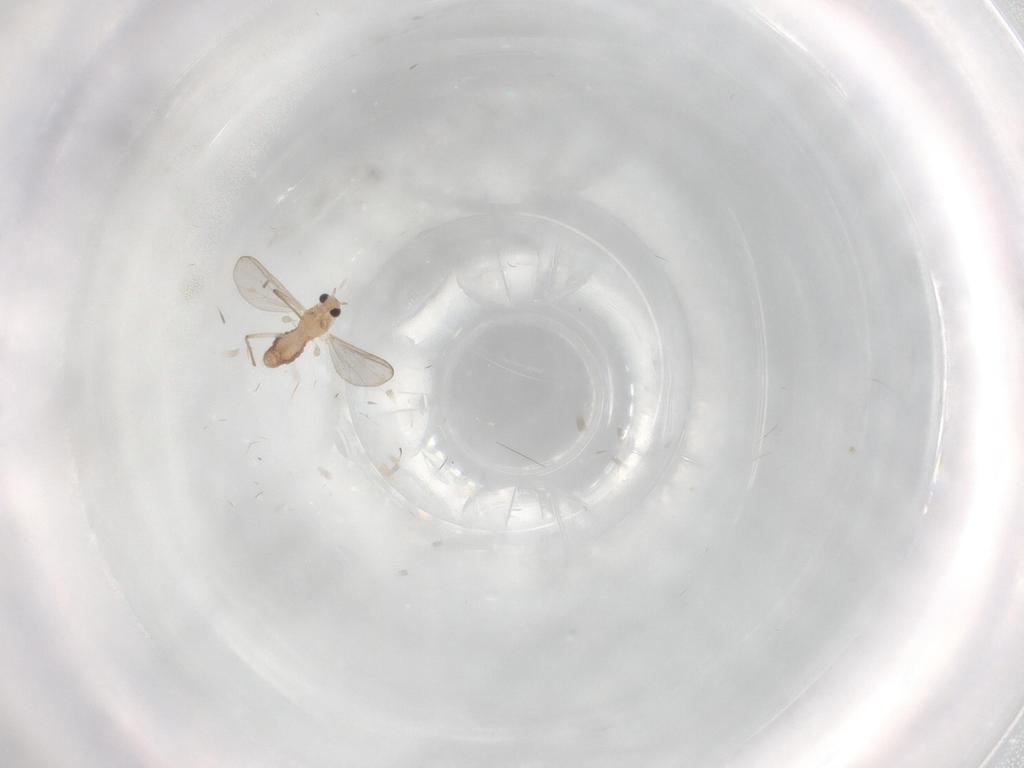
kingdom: Animalia
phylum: Arthropoda
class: Insecta
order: Diptera
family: Chironomidae
